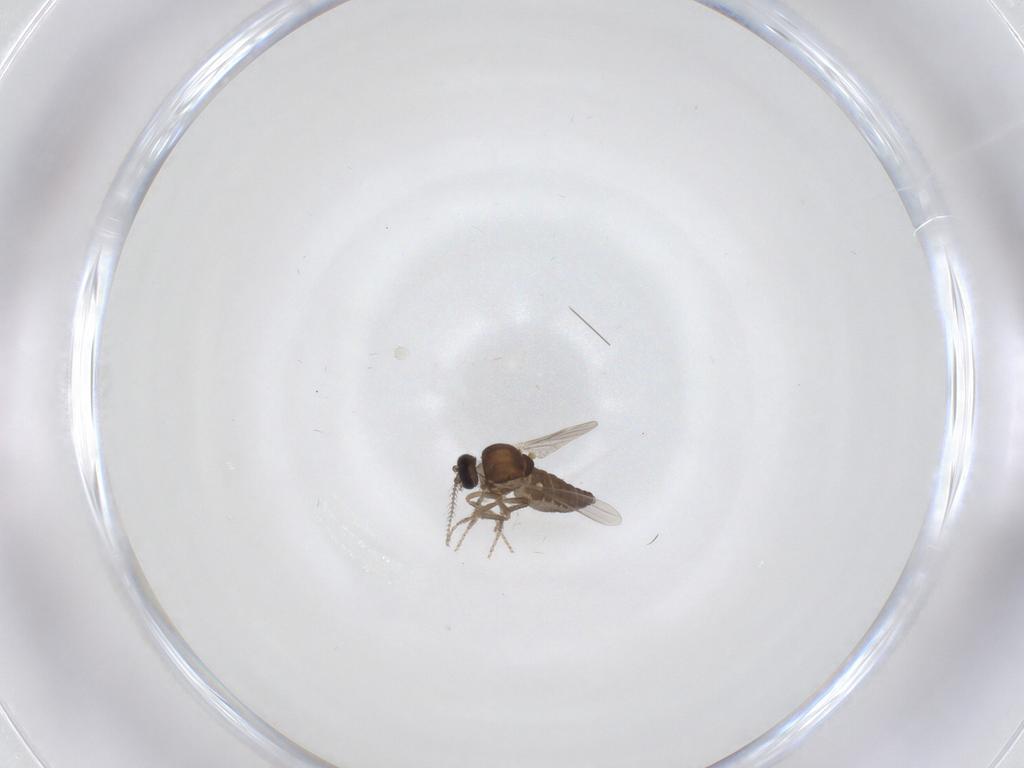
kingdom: Animalia
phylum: Arthropoda
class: Insecta
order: Diptera
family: Ceratopogonidae
